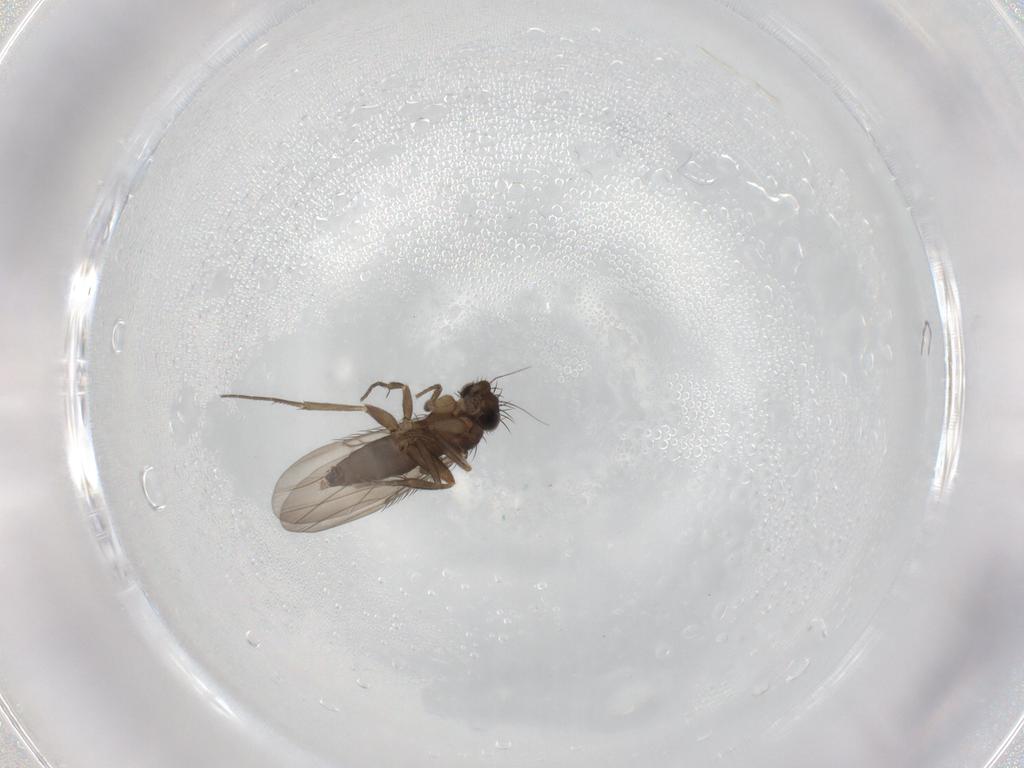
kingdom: Animalia
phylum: Arthropoda
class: Insecta
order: Diptera
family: Phoridae
